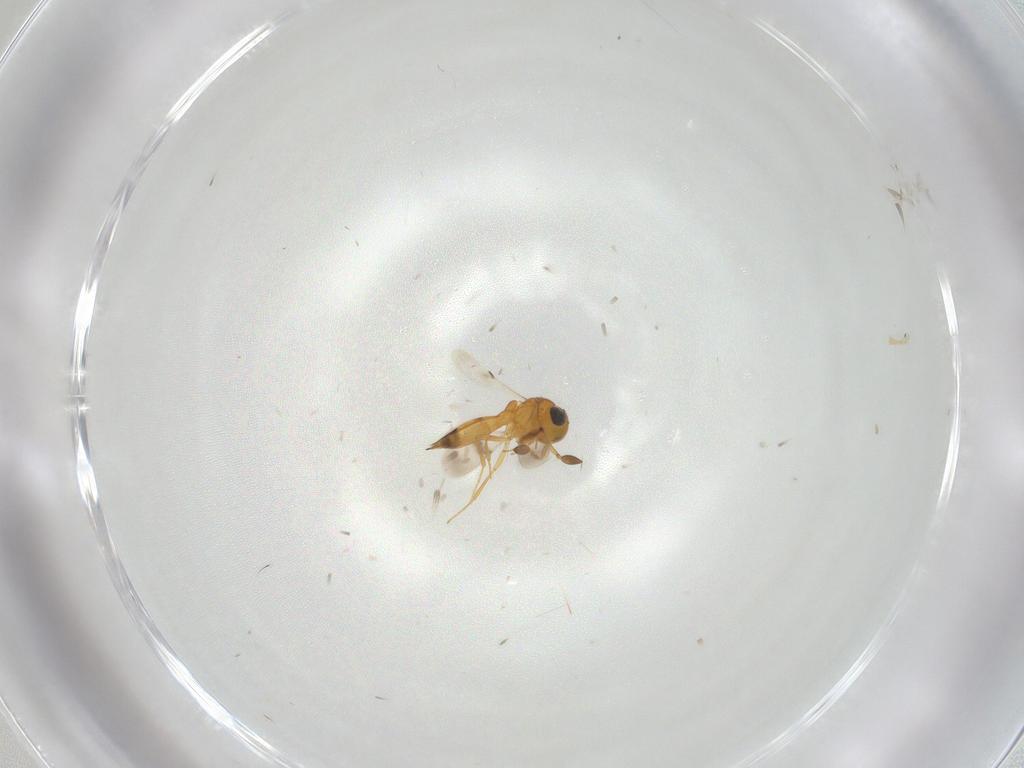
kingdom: Animalia
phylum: Arthropoda
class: Insecta
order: Hymenoptera
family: Scelionidae
